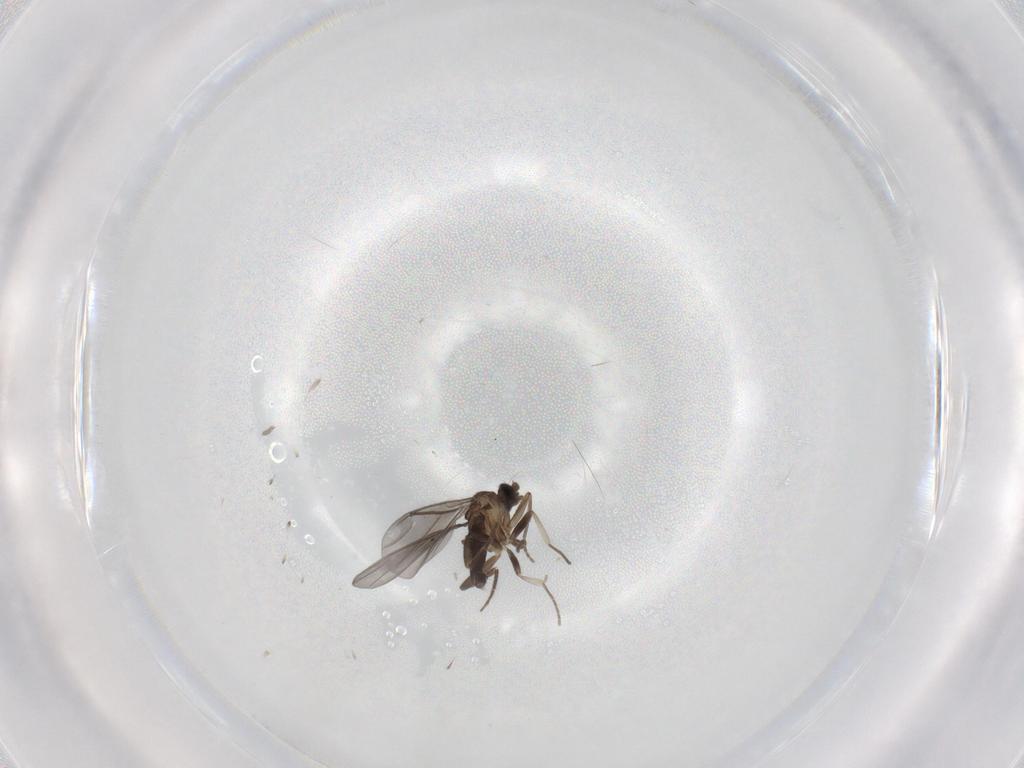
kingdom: Animalia
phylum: Arthropoda
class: Insecta
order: Diptera
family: Phoridae
